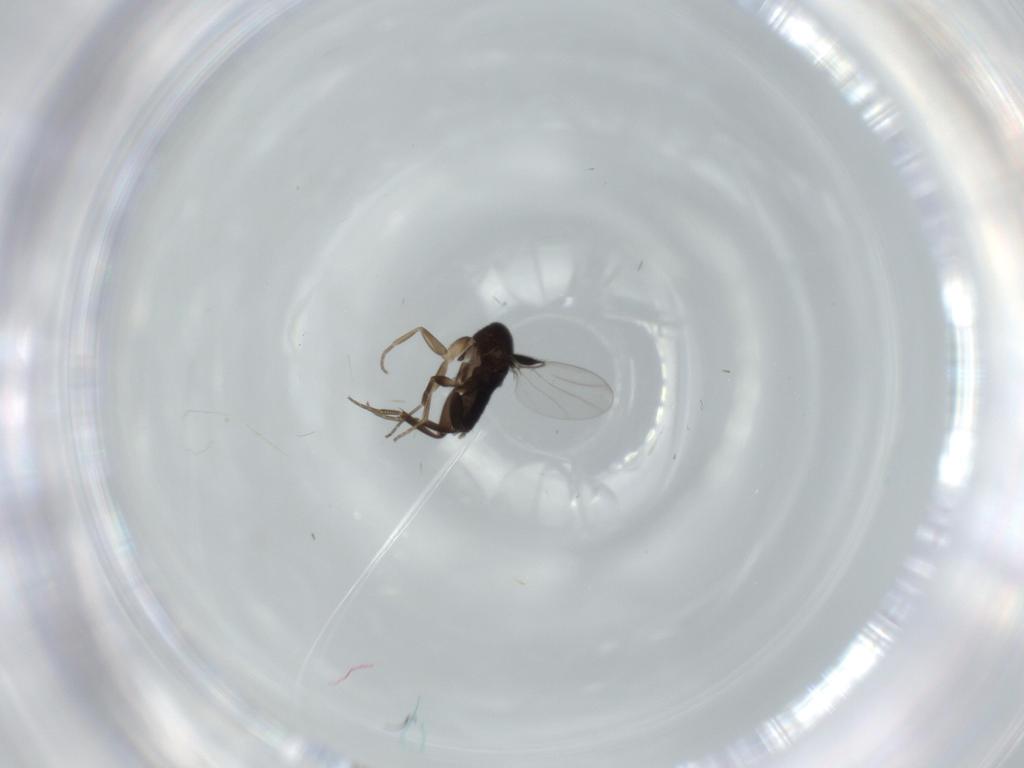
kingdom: Animalia
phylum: Arthropoda
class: Insecta
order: Diptera
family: Phoridae
